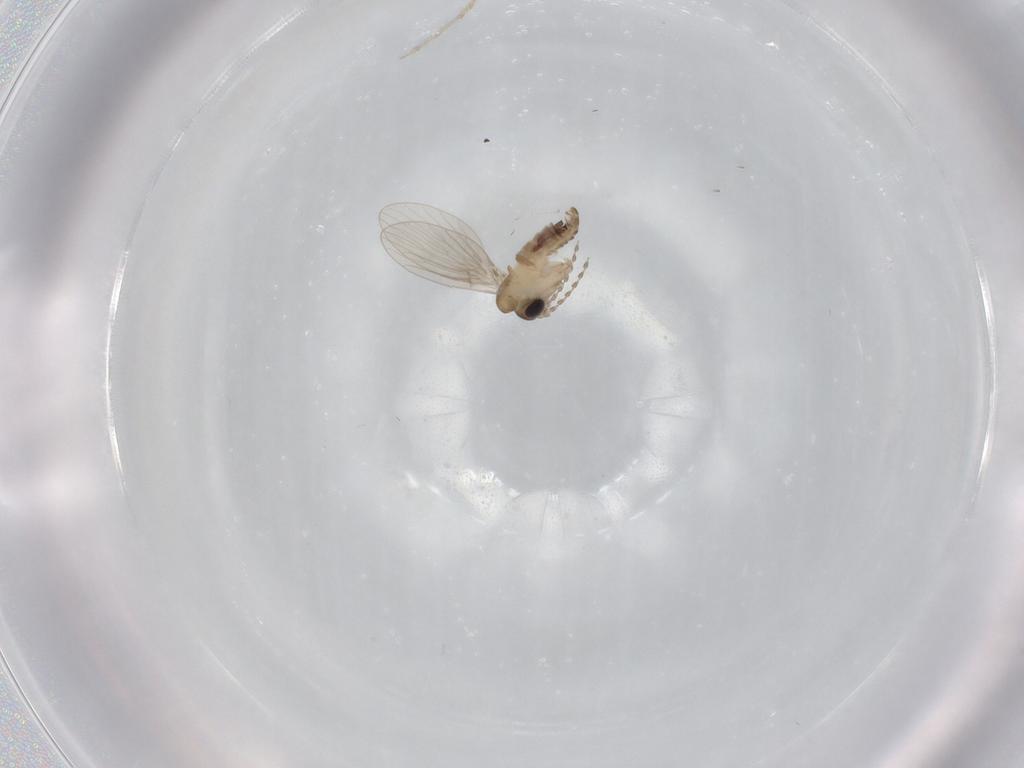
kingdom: Animalia
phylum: Arthropoda
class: Insecta
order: Diptera
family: Psychodidae
